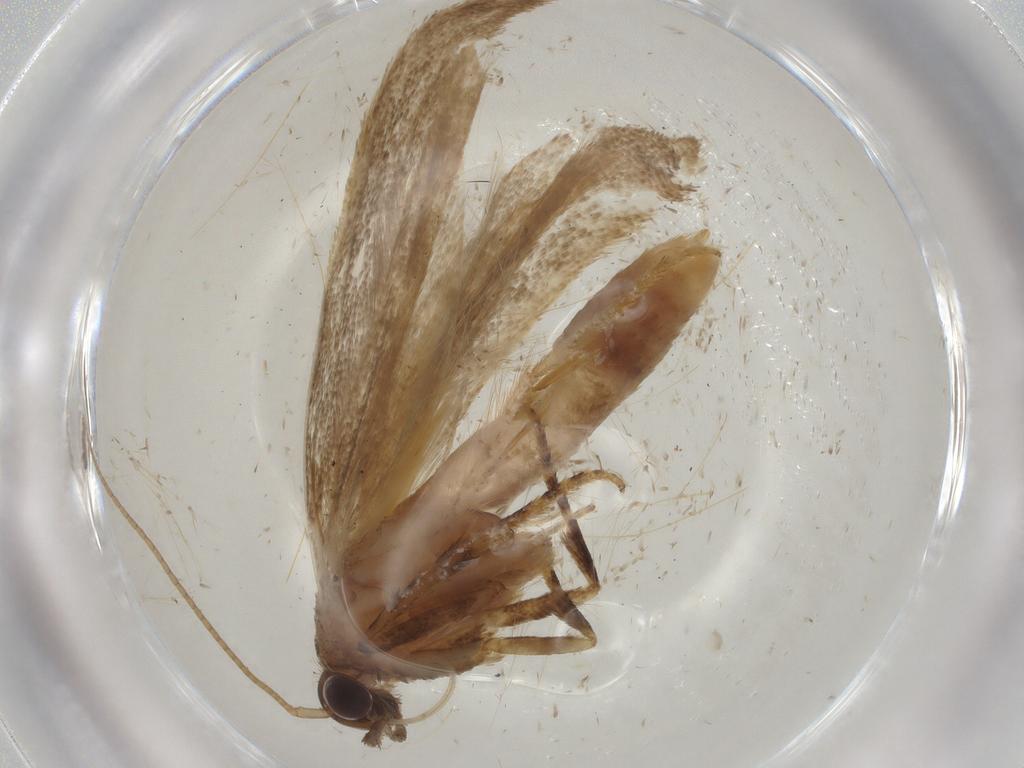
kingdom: Animalia
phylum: Arthropoda
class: Insecta
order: Lepidoptera
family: Gelechiidae
